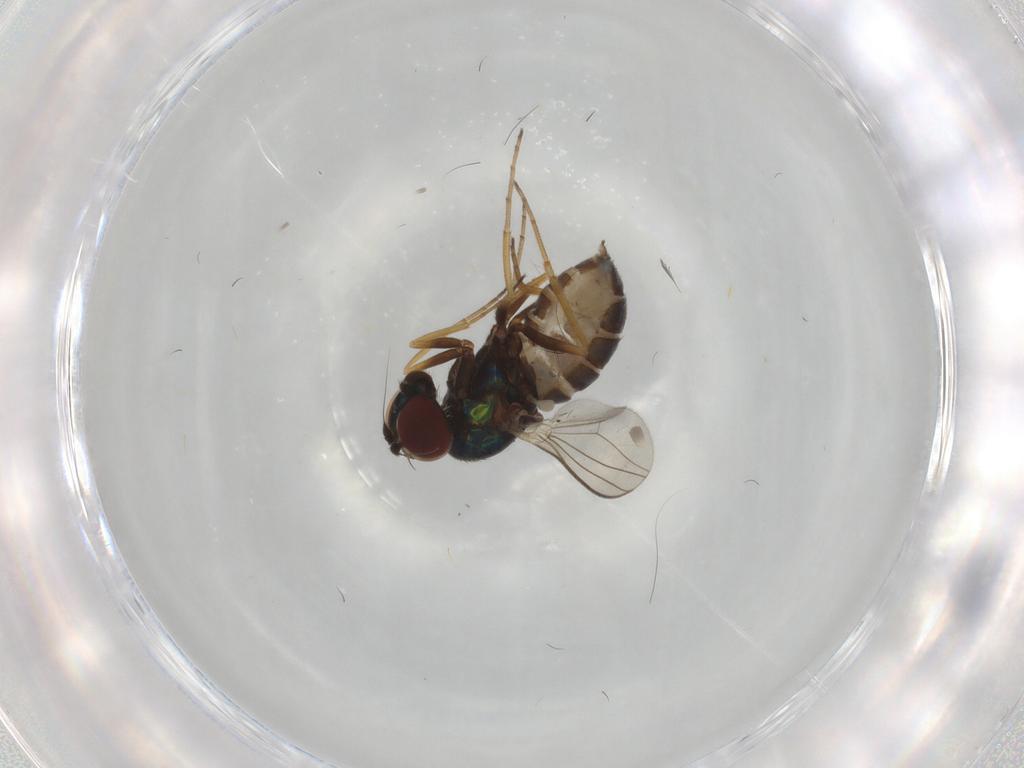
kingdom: Animalia
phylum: Arthropoda
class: Insecta
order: Diptera
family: Dolichopodidae
